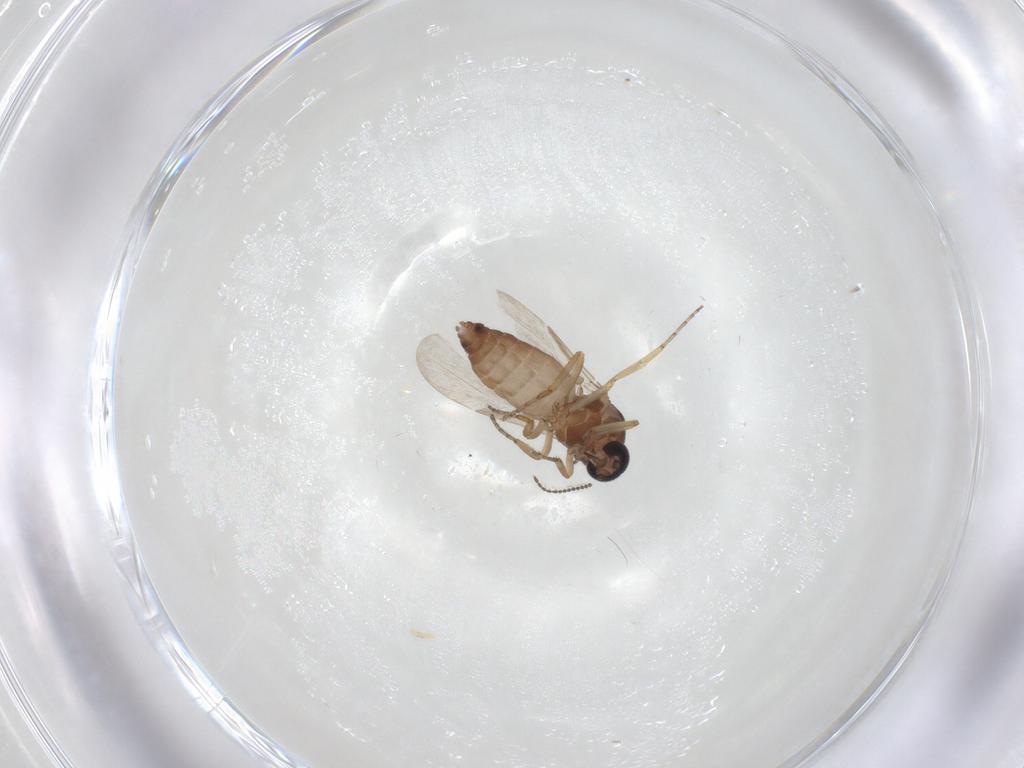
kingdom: Animalia
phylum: Arthropoda
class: Insecta
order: Diptera
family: Ceratopogonidae
